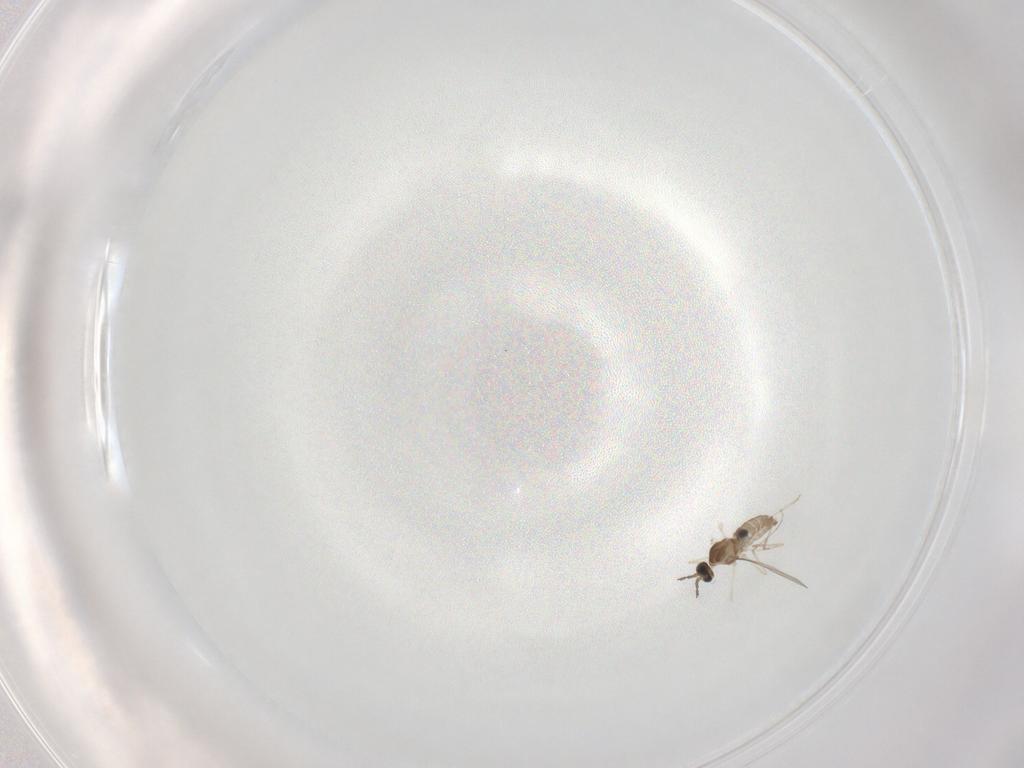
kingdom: Animalia
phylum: Arthropoda
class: Insecta
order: Diptera
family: Cecidomyiidae
